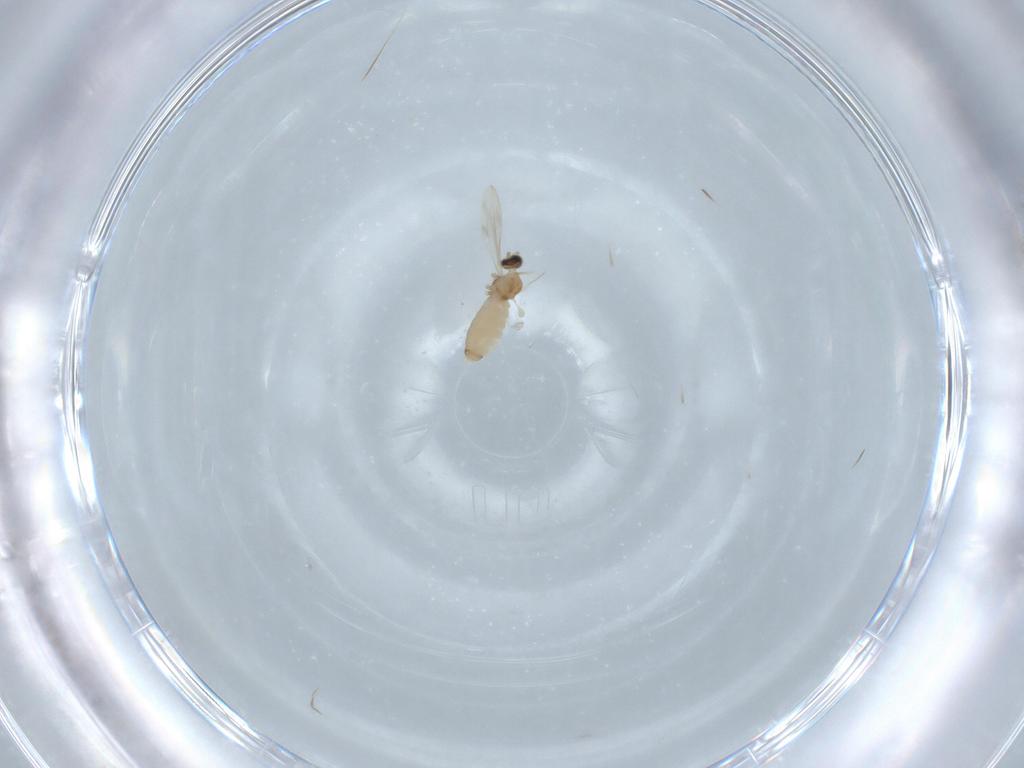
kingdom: Animalia
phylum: Arthropoda
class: Insecta
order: Diptera
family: Cecidomyiidae
